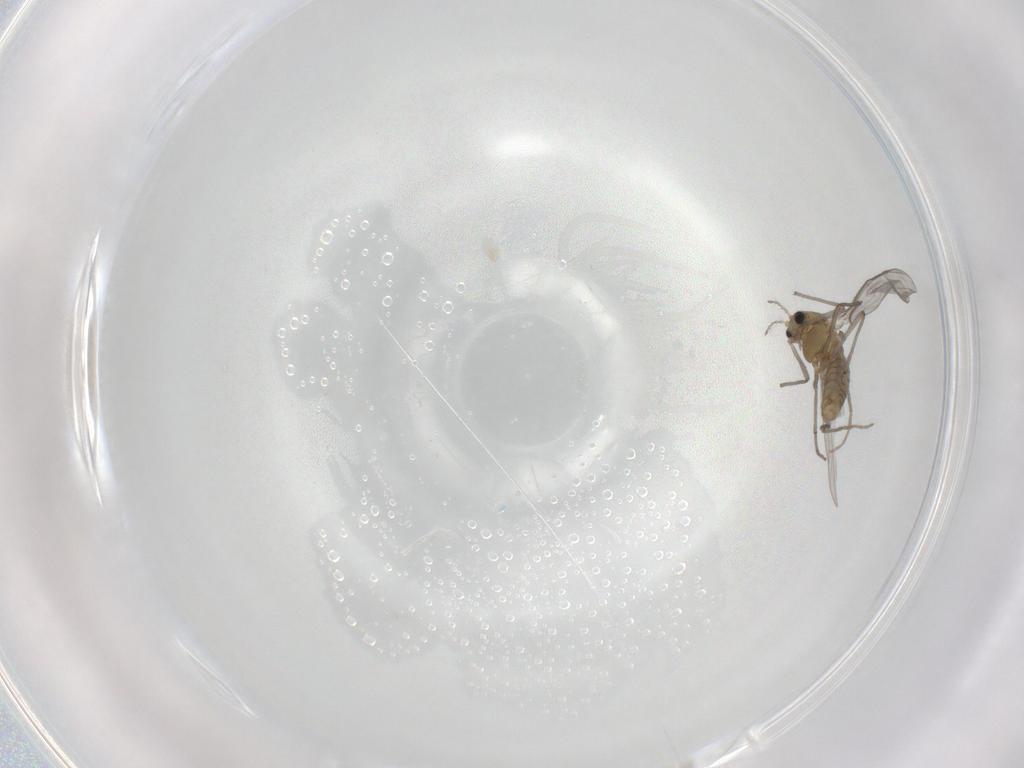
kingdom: Animalia
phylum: Arthropoda
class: Insecta
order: Diptera
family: Chironomidae
